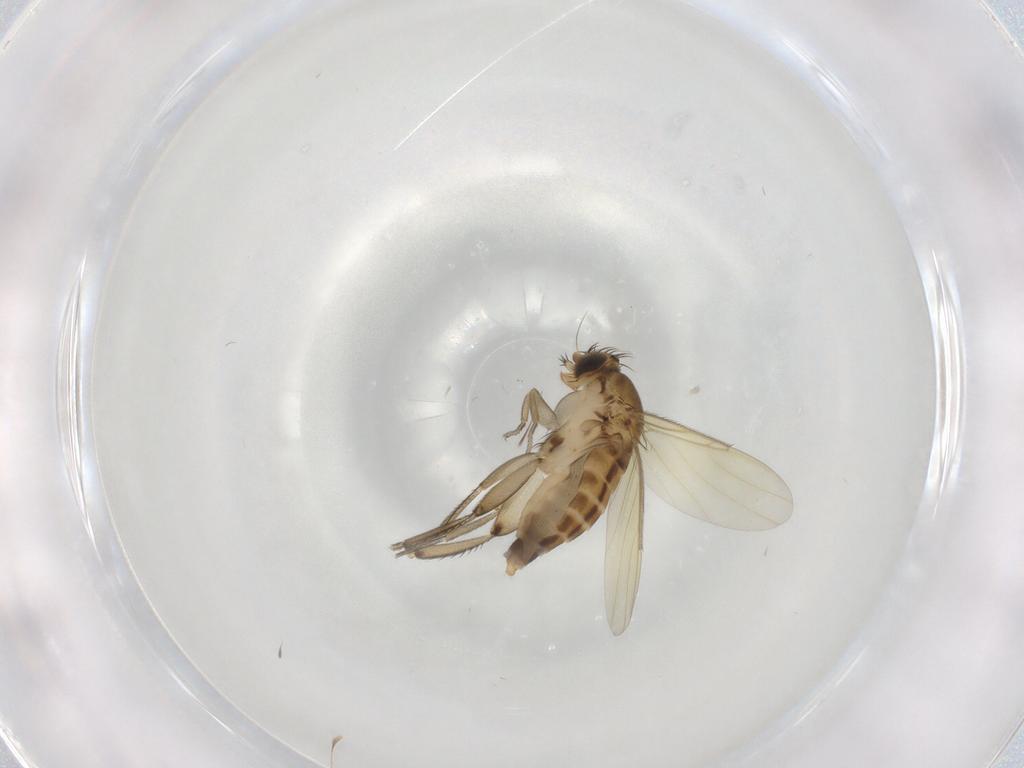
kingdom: Animalia
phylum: Arthropoda
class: Insecta
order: Diptera
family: Phoridae
